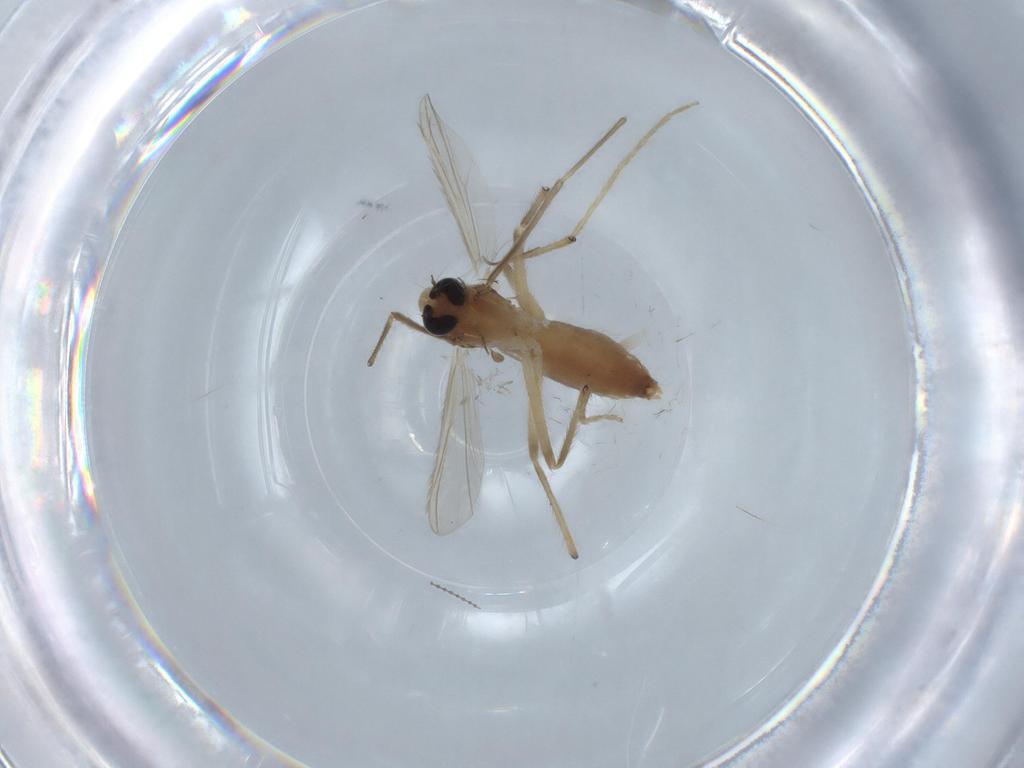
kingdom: Animalia
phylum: Arthropoda
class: Insecta
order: Diptera
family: Chironomidae
